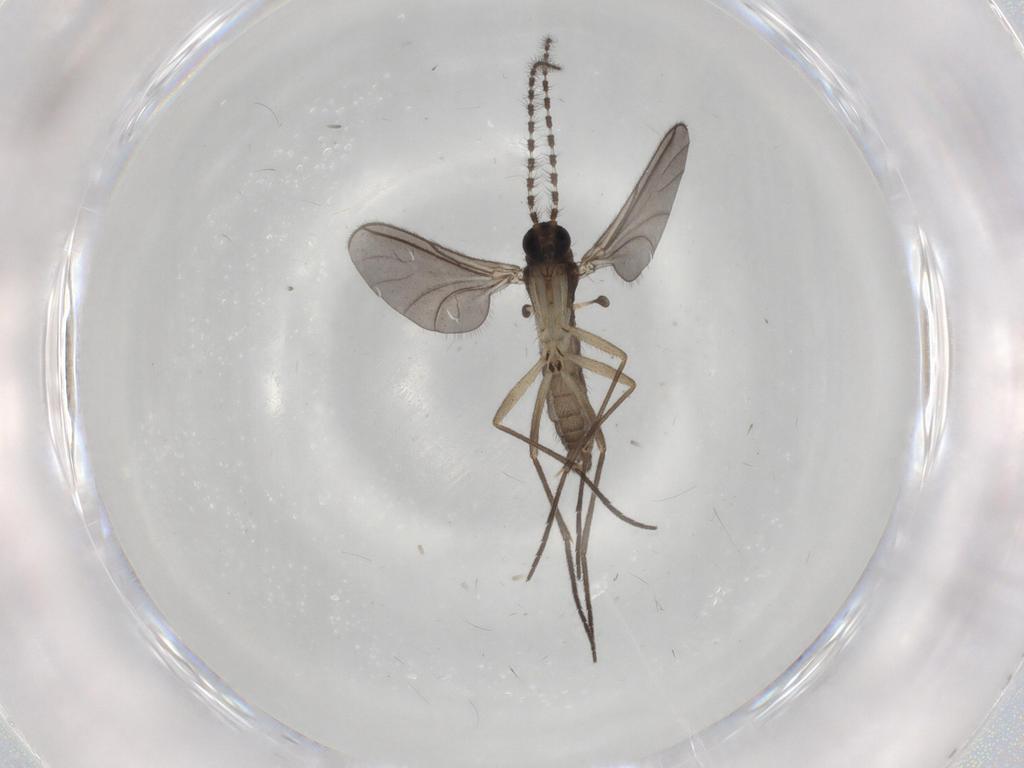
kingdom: Animalia
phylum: Arthropoda
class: Insecta
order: Diptera
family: Sciaridae
